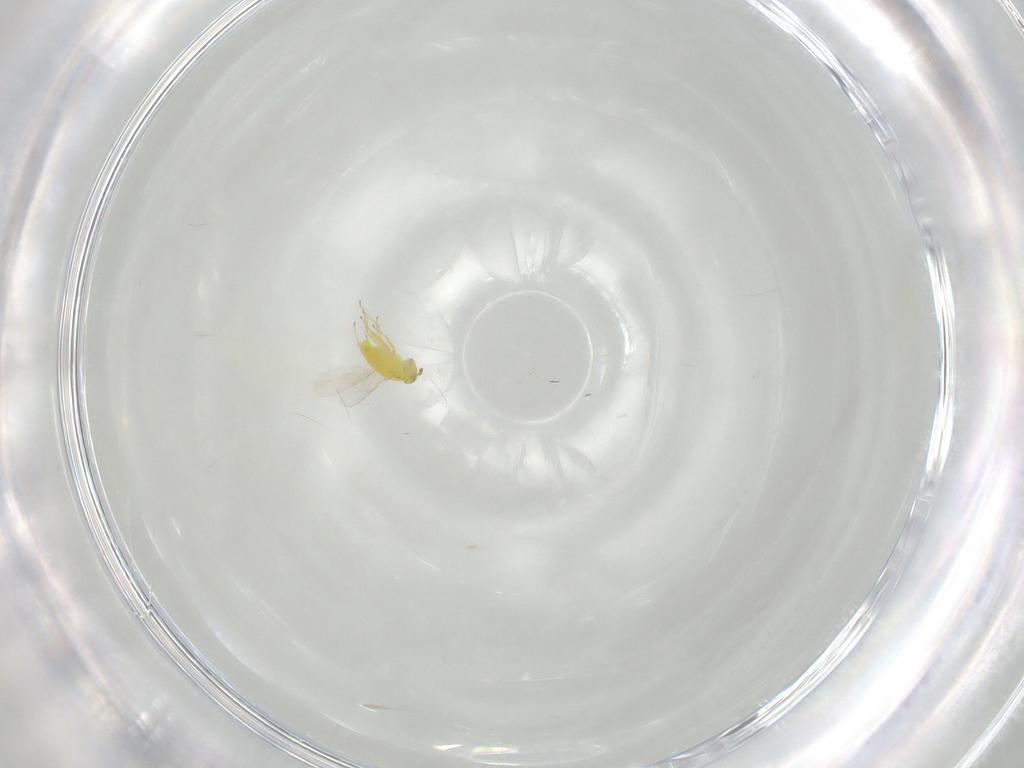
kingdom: Animalia
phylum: Arthropoda
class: Insecta
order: Hymenoptera
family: Aphelinidae
